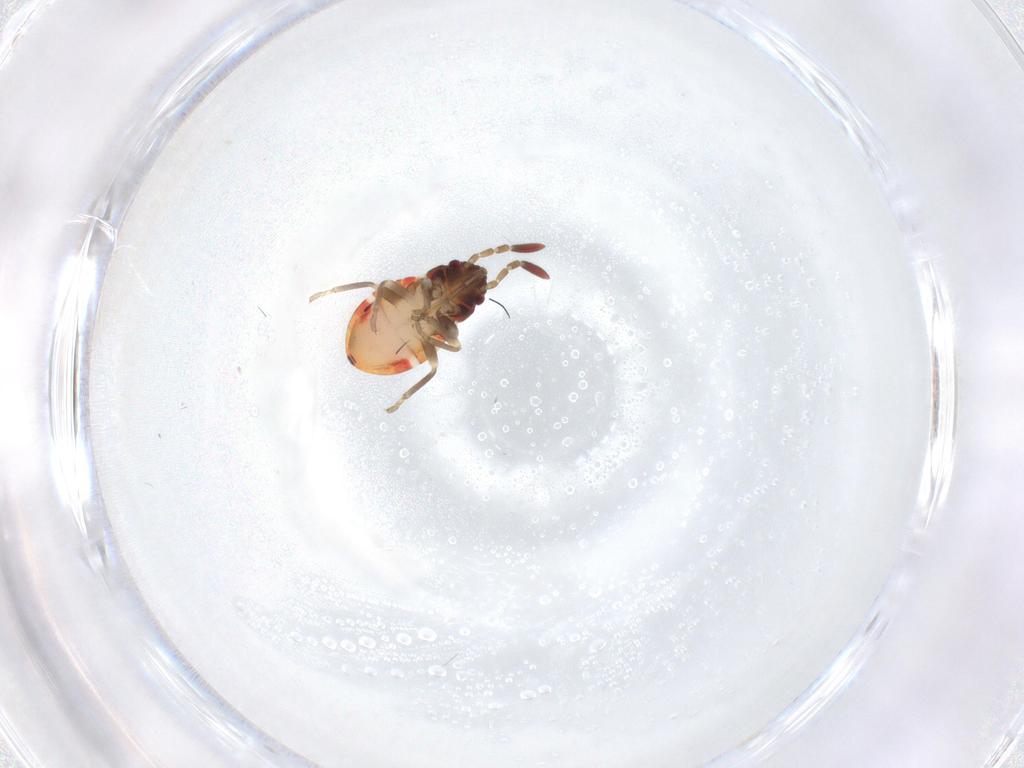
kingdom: Animalia
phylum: Arthropoda
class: Insecta
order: Hemiptera
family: Rhyparochromidae
